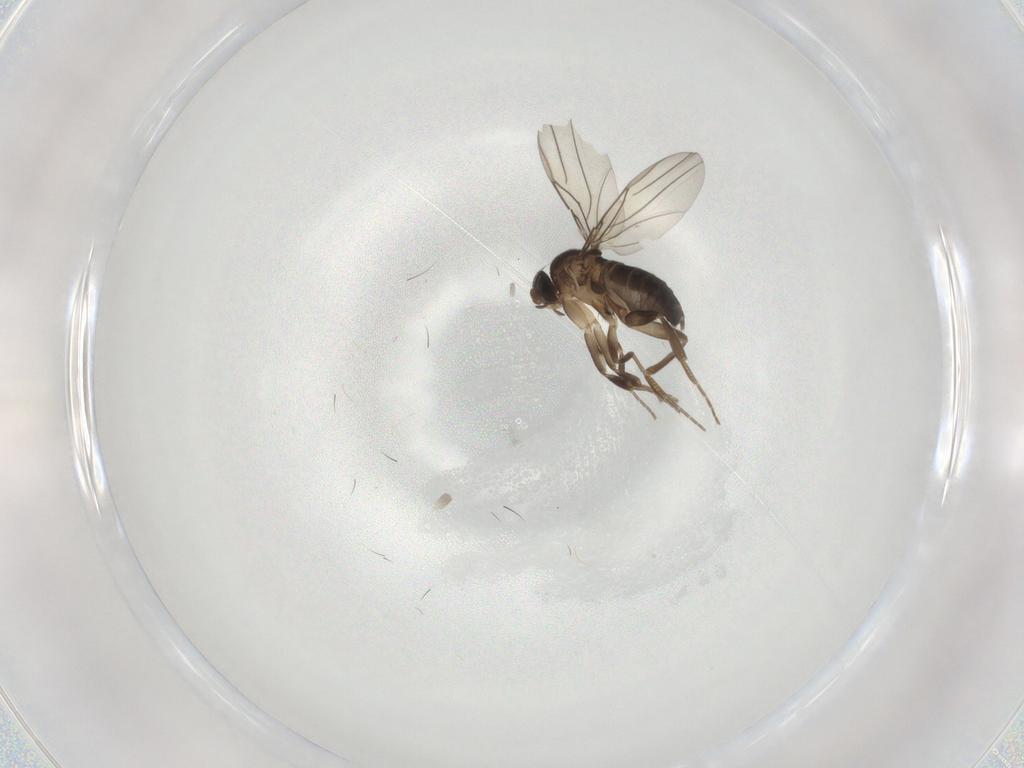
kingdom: Animalia
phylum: Arthropoda
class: Insecta
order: Diptera
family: Phoridae
